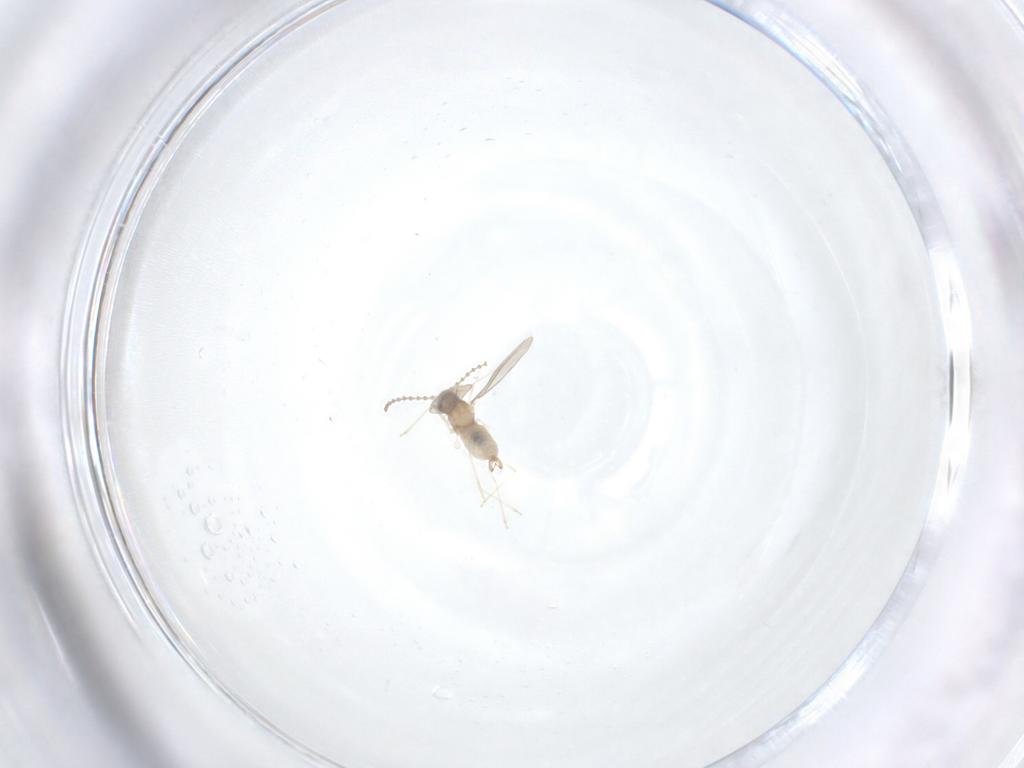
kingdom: Animalia
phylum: Arthropoda
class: Insecta
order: Diptera
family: Cecidomyiidae
